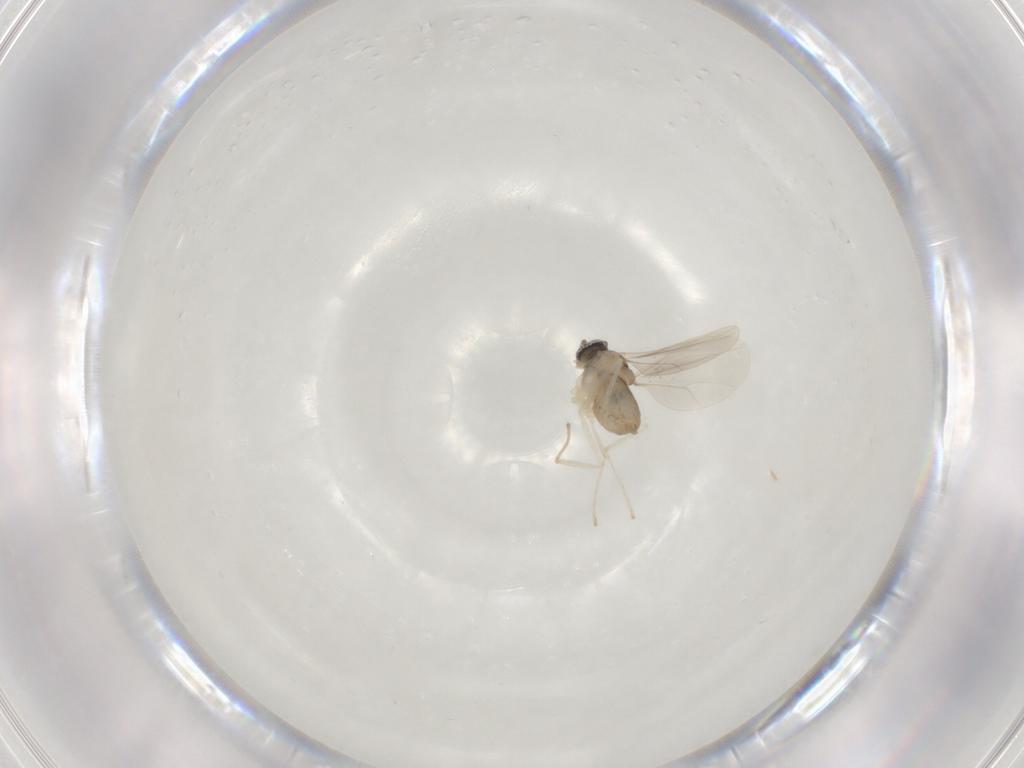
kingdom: Animalia
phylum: Arthropoda
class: Insecta
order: Diptera
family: Cecidomyiidae
